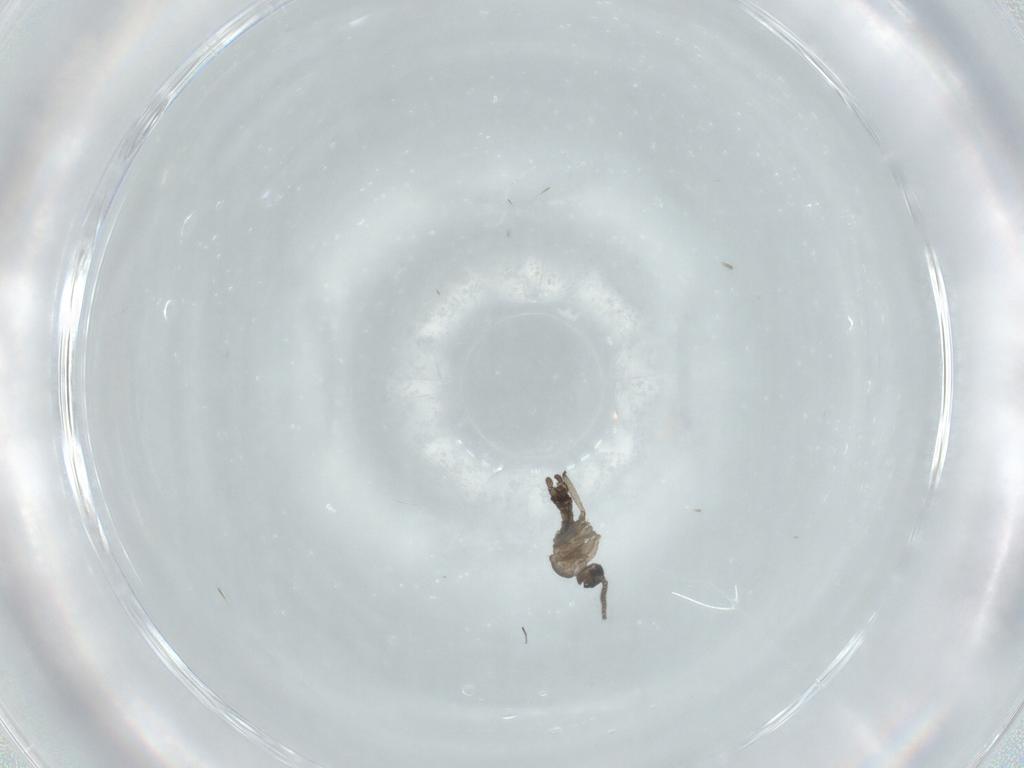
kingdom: Animalia
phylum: Arthropoda
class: Insecta
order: Diptera
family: Sciaridae
